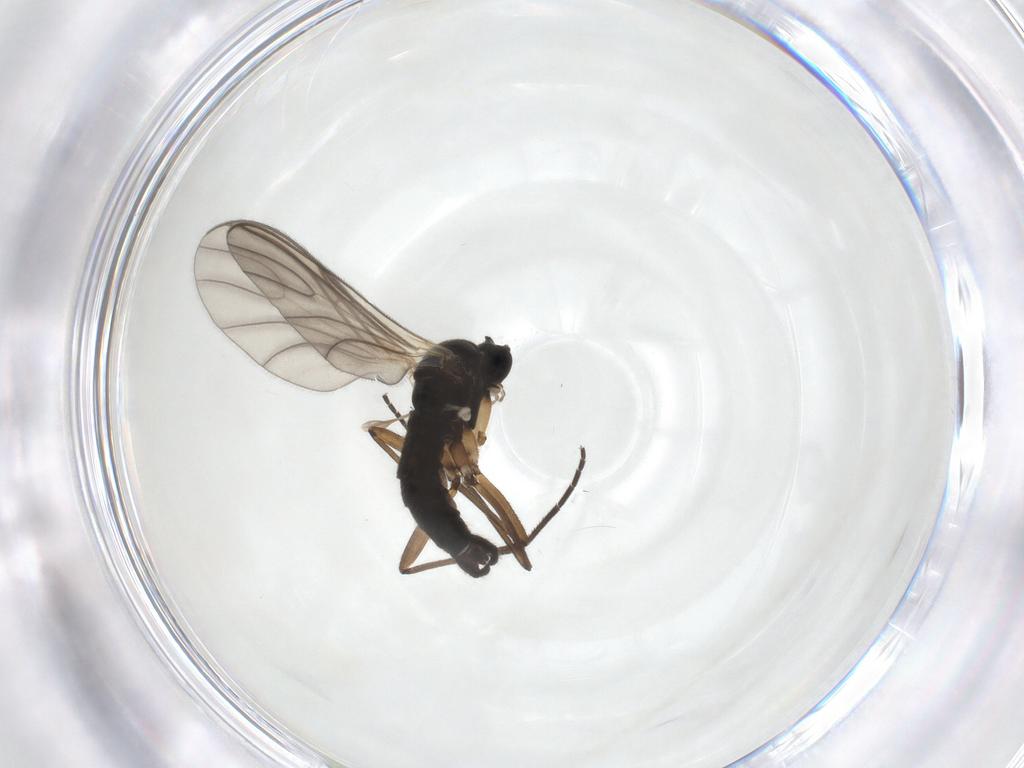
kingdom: Animalia
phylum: Arthropoda
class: Insecta
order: Diptera
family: Sciaridae
